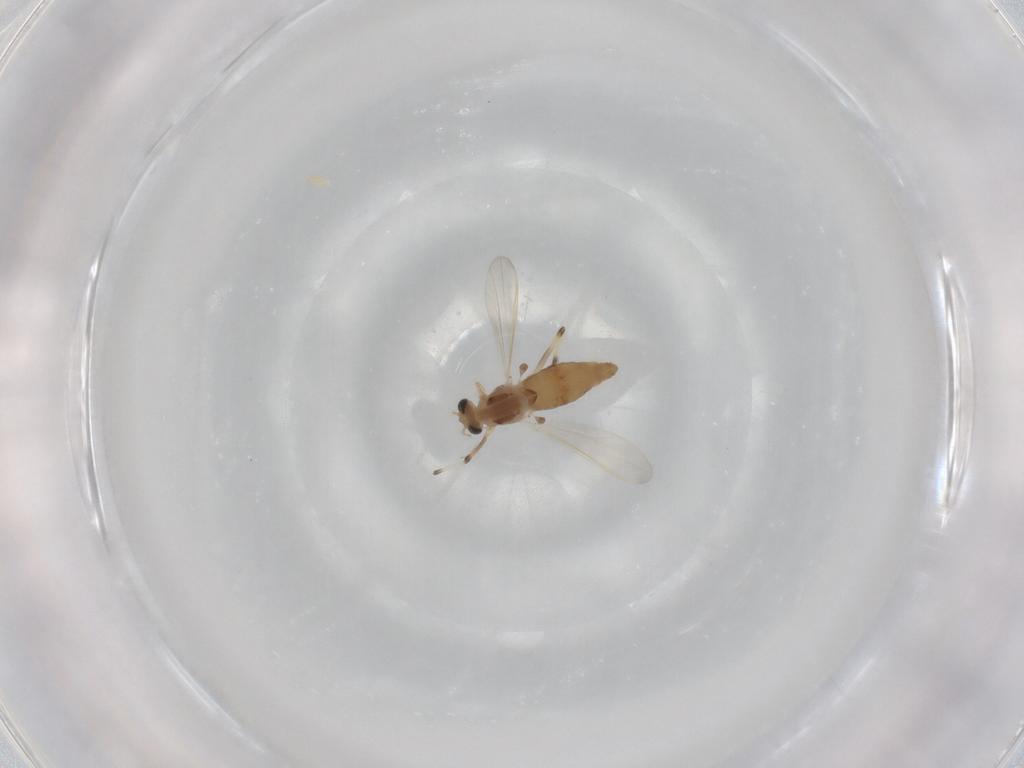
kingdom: Animalia
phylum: Arthropoda
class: Insecta
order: Diptera
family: Chironomidae
